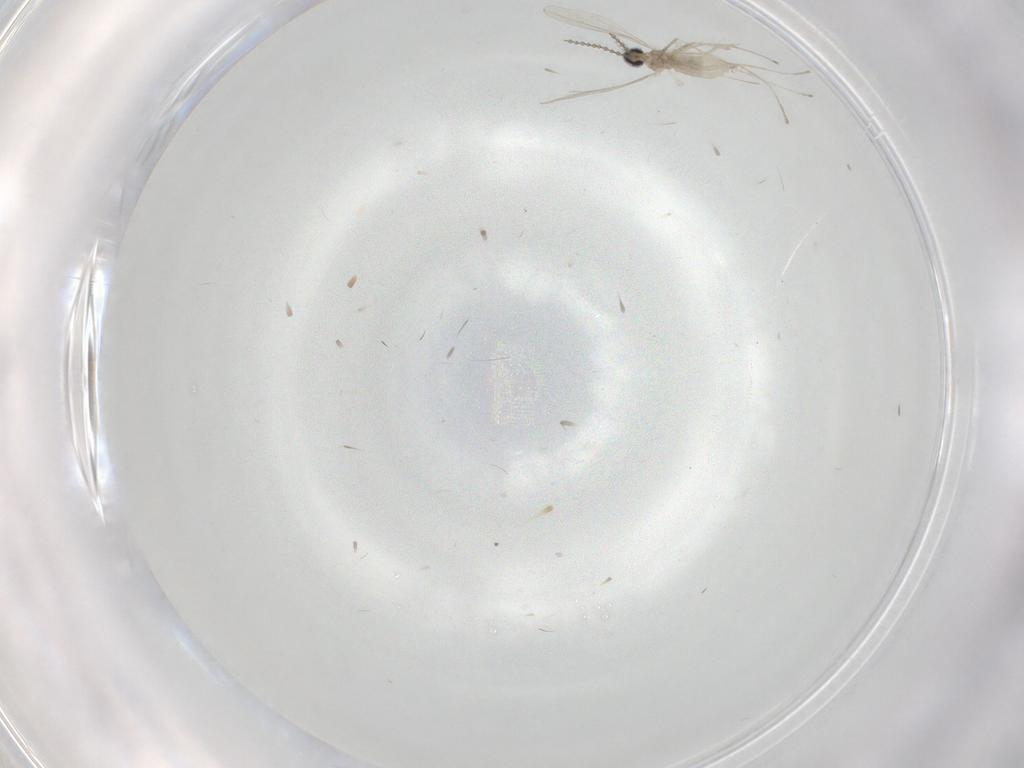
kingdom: Animalia
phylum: Arthropoda
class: Insecta
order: Diptera
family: Cecidomyiidae
